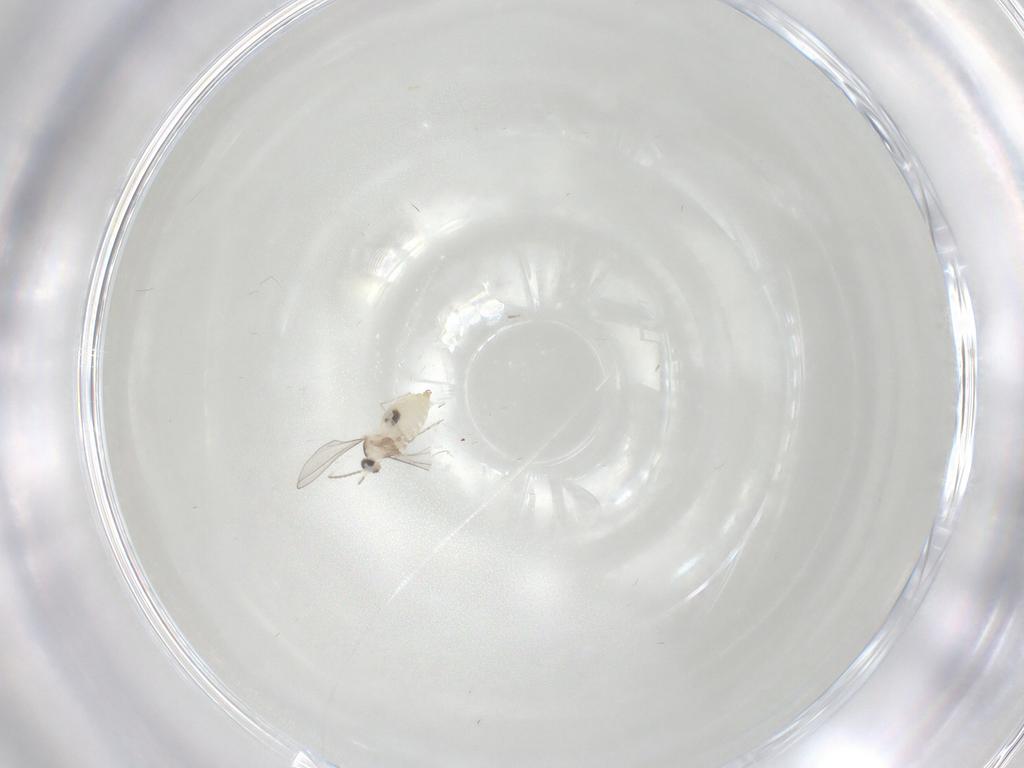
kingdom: Animalia
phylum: Arthropoda
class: Insecta
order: Diptera
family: Cecidomyiidae
